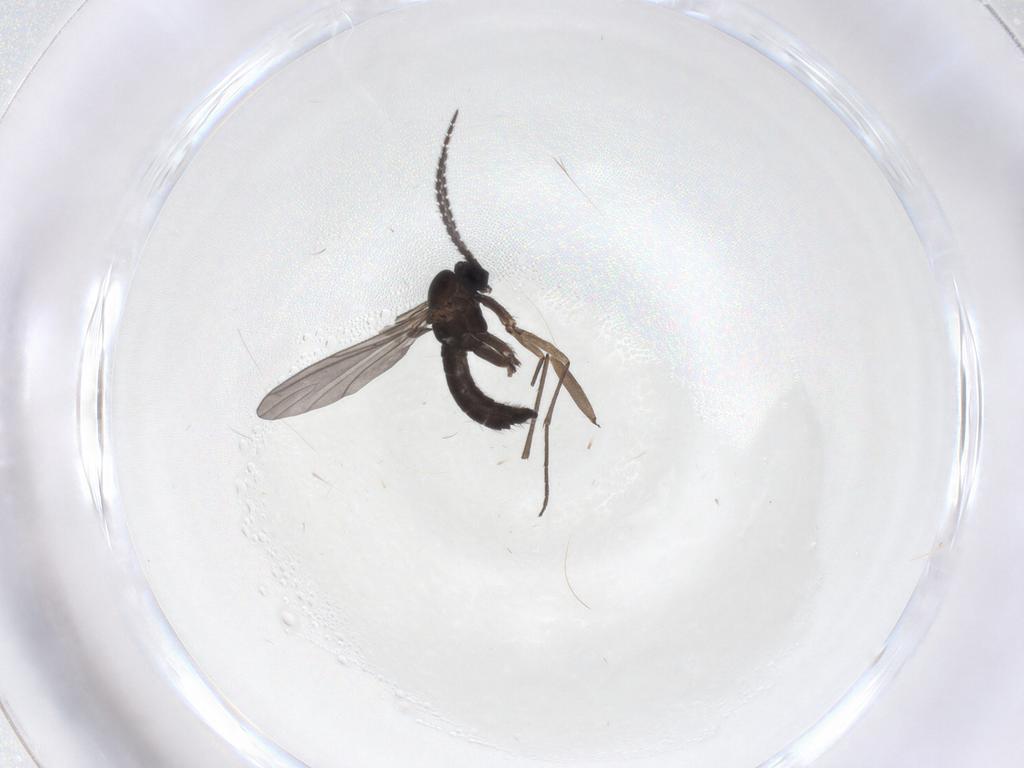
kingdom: Animalia
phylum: Arthropoda
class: Insecta
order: Diptera
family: Sciaridae
